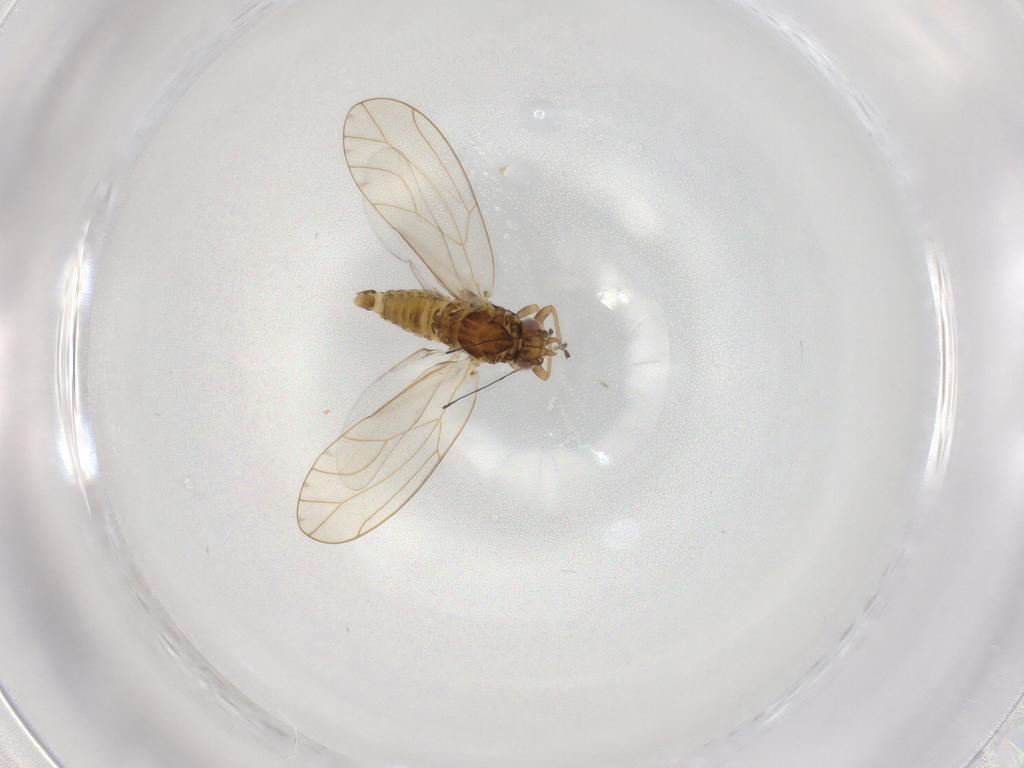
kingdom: Animalia
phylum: Arthropoda
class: Insecta
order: Hemiptera
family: Triozidae
